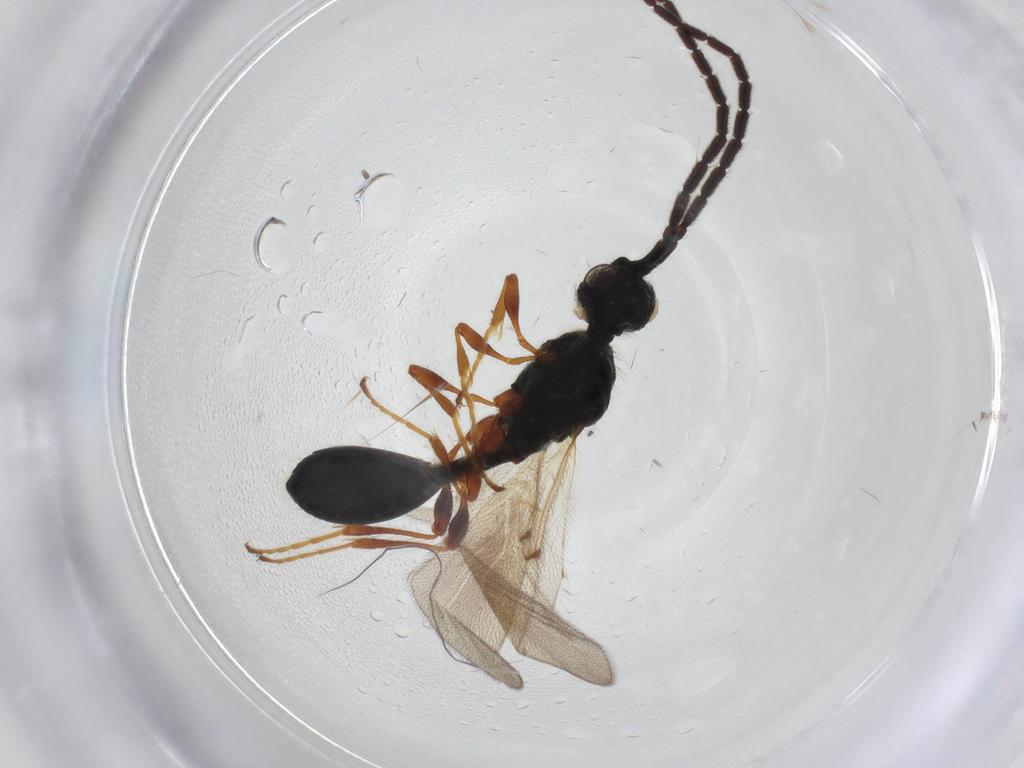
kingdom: Animalia
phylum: Arthropoda
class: Insecta
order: Hymenoptera
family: Diapriidae
